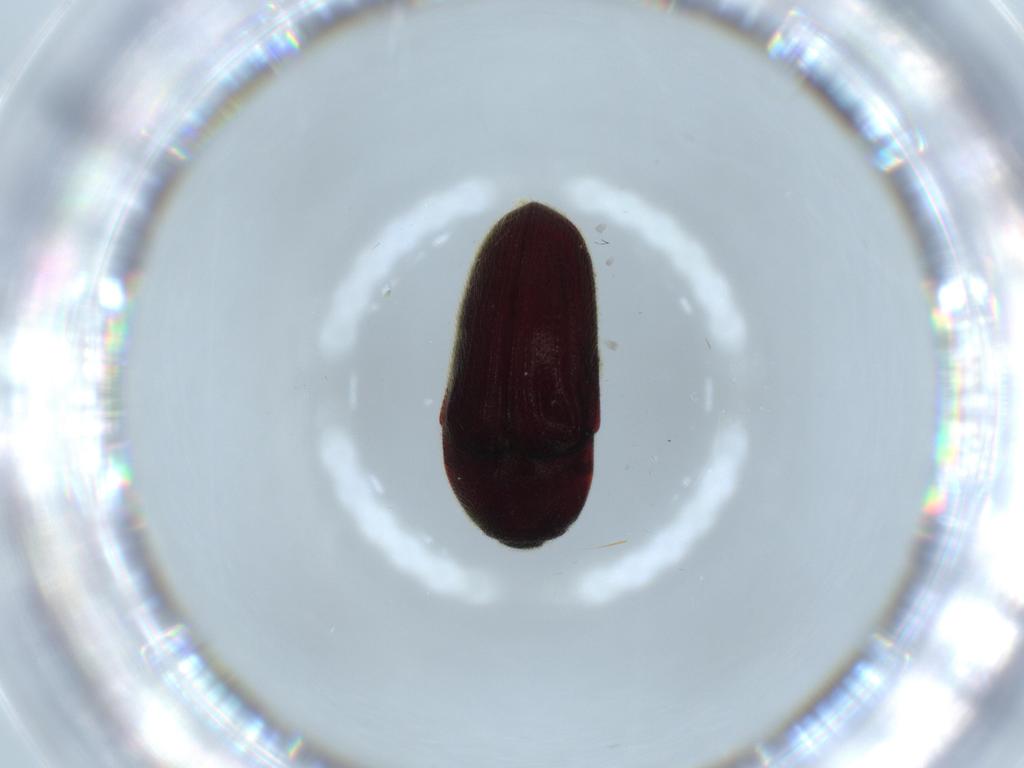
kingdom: Animalia
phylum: Arthropoda
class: Insecta
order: Coleoptera
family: Throscidae
